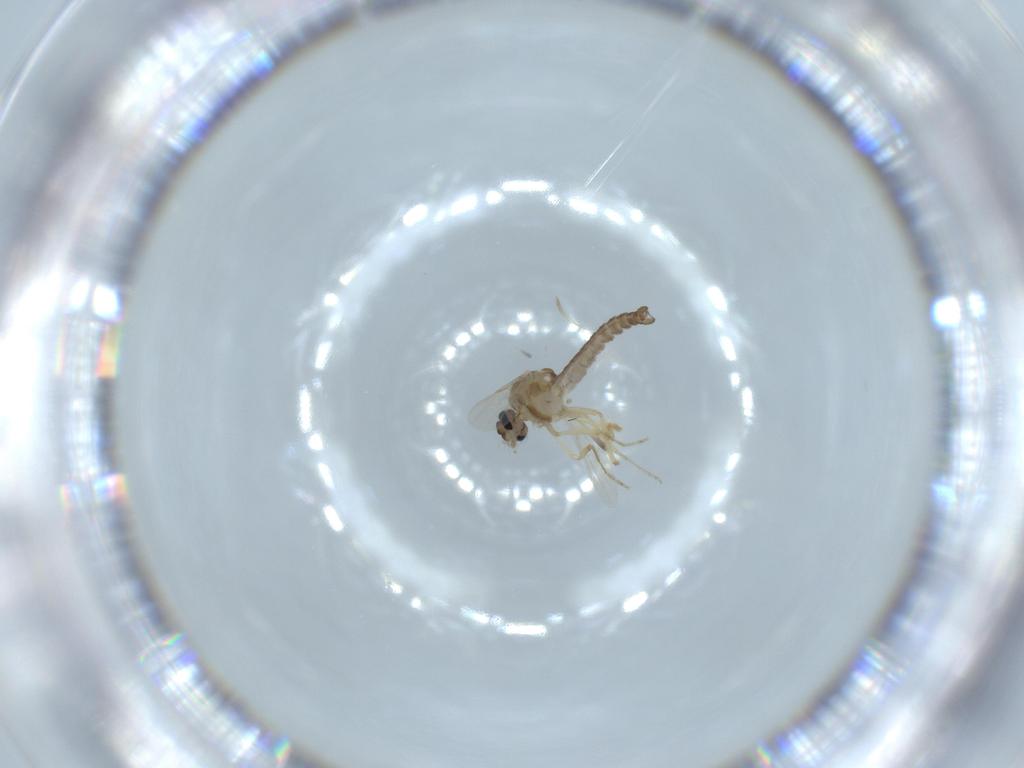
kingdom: Animalia
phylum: Arthropoda
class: Insecta
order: Diptera
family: Ceratopogonidae
